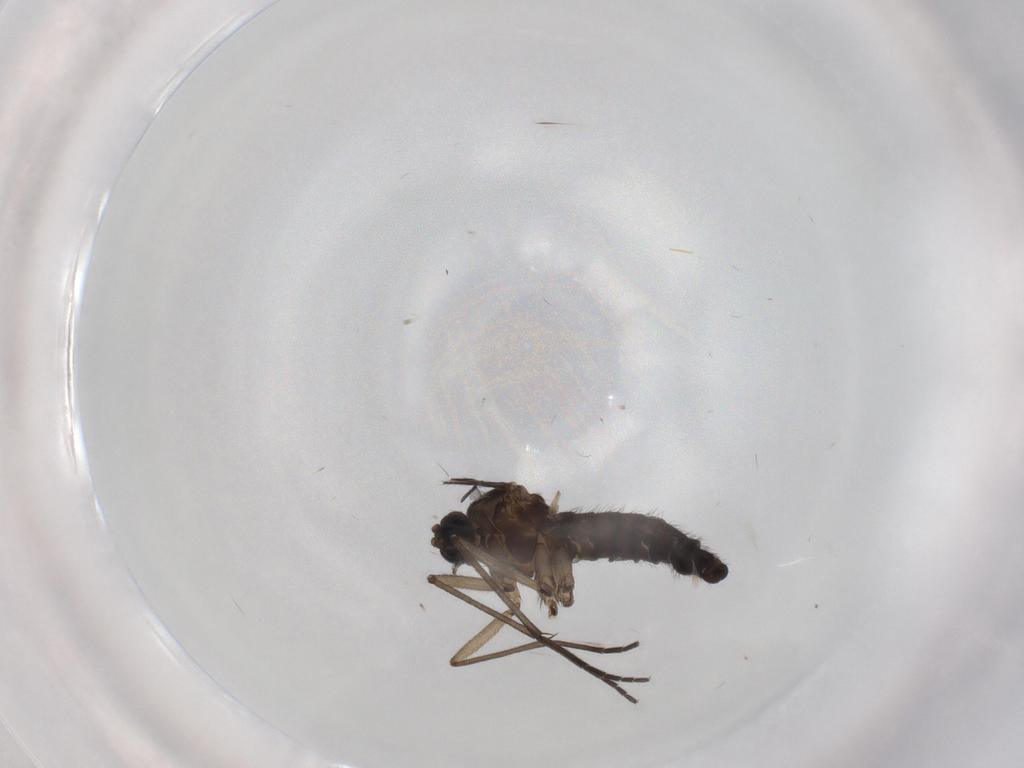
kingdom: Animalia
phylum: Arthropoda
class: Insecta
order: Diptera
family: Sciaridae
